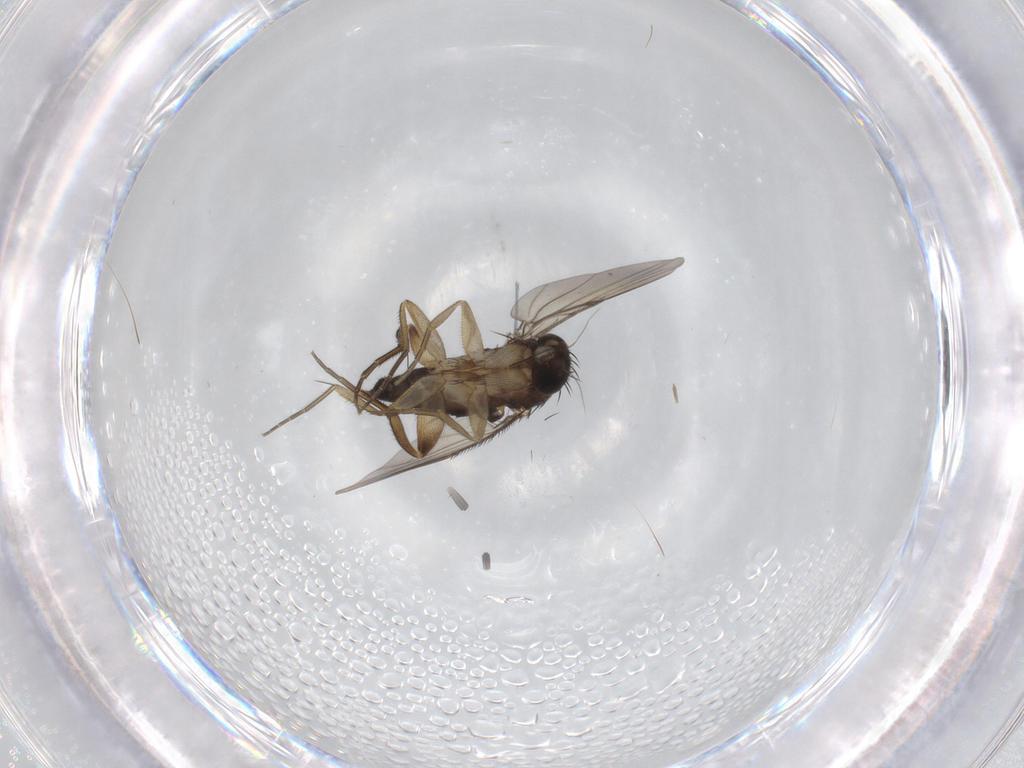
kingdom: Animalia
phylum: Arthropoda
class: Insecta
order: Diptera
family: Phoridae
